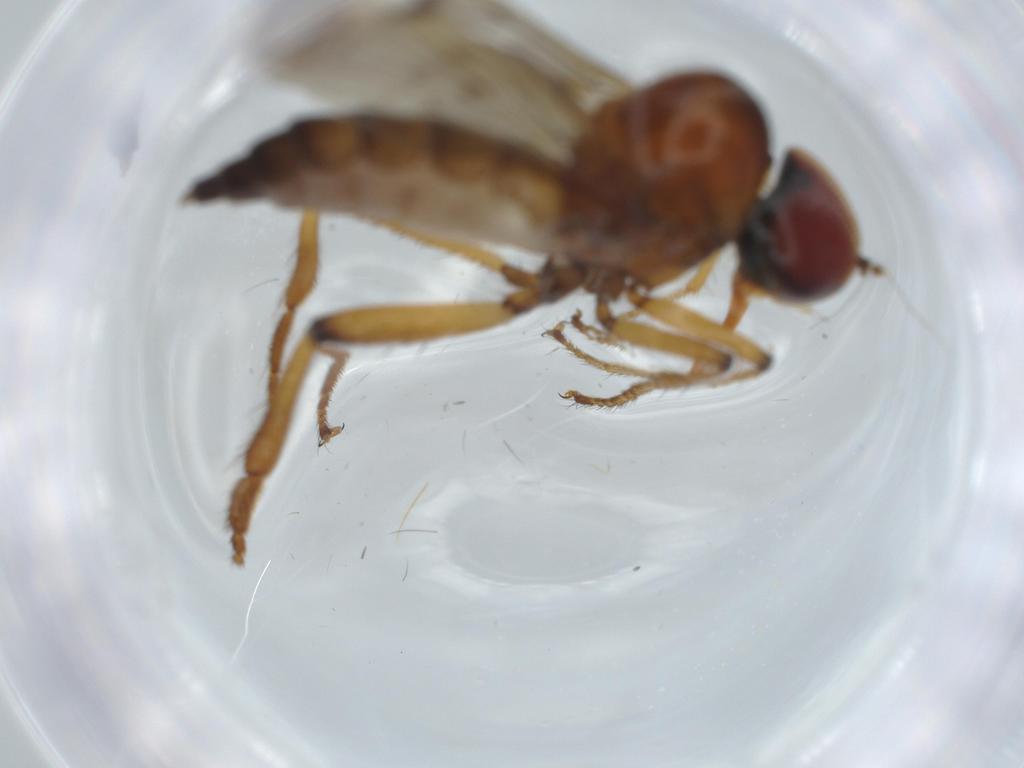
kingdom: Animalia
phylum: Arthropoda
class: Insecta
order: Diptera
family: Hybotidae
